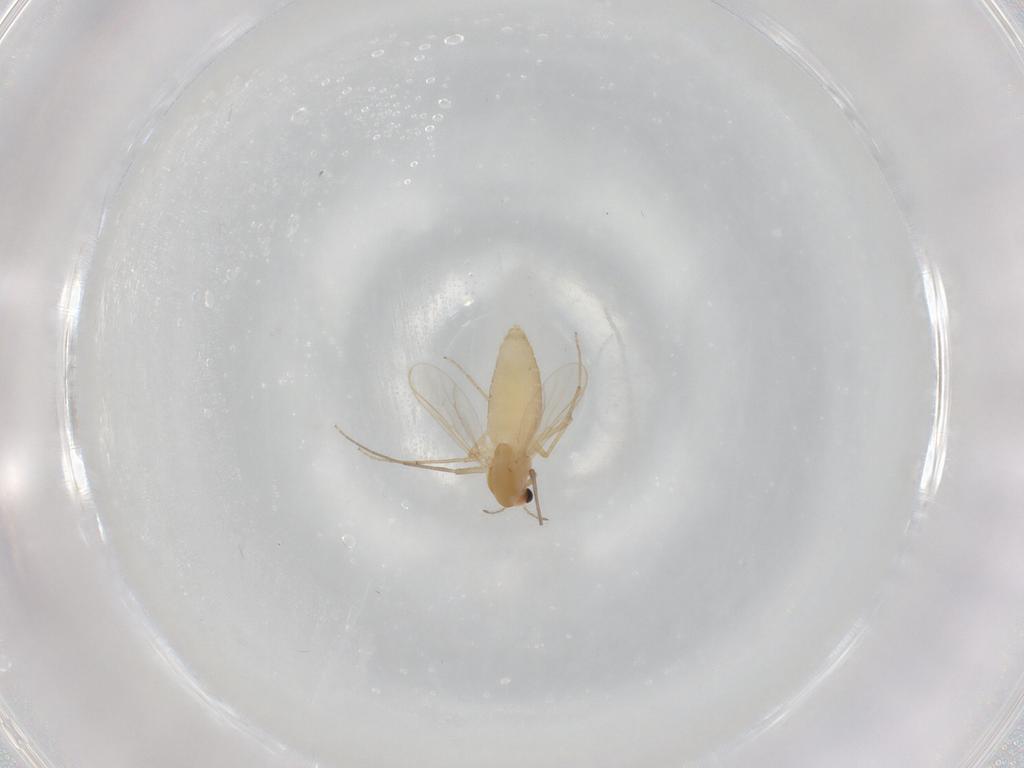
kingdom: Animalia
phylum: Arthropoda
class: Insecta
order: Diptera
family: Chironomidae
